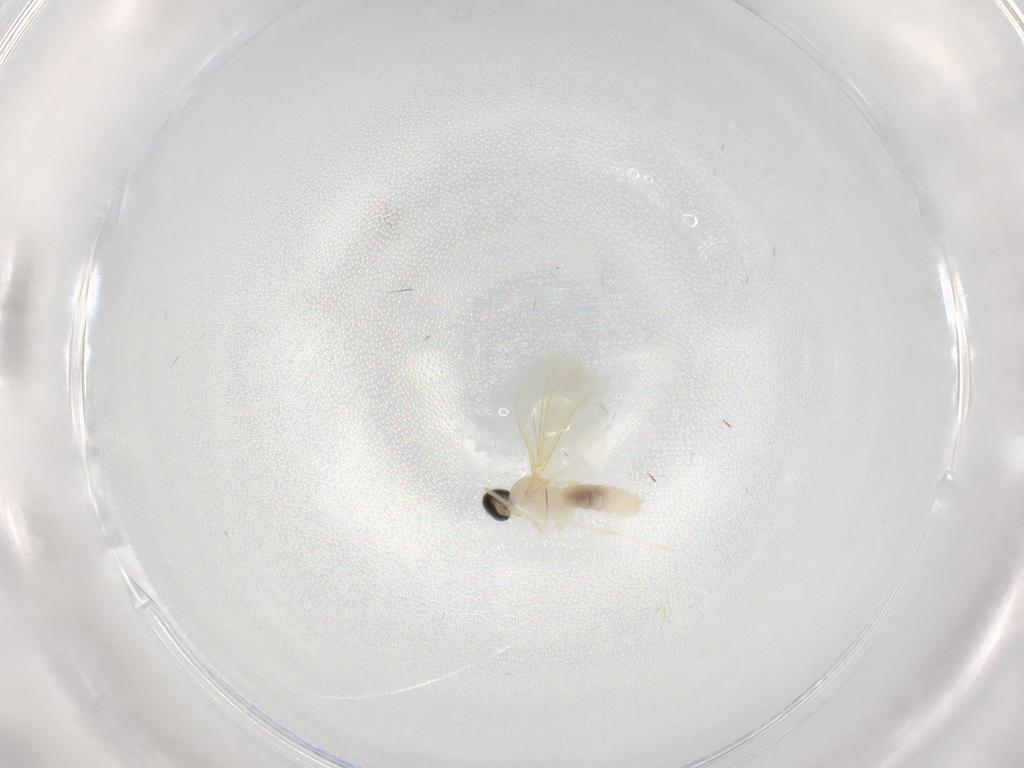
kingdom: Animalia
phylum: Arthropoda
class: Insecta
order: Diptera
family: Cecidomyiidae
